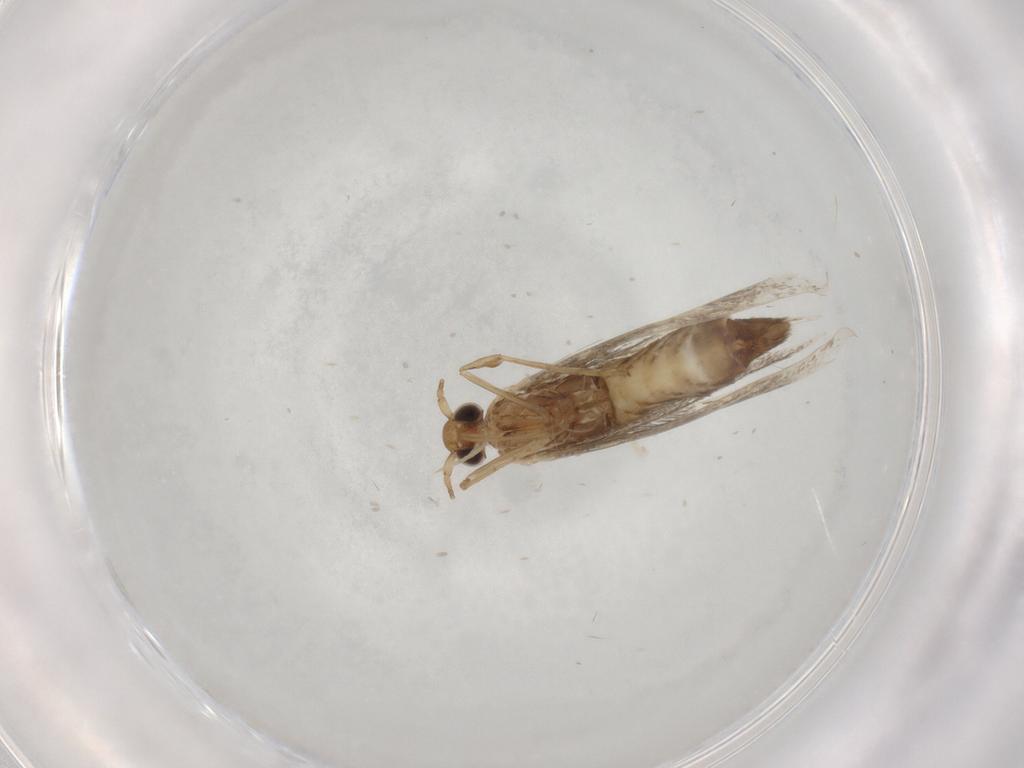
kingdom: Animalia
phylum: Arthropoda
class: Insecta
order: Lepidoptera
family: Gracillariidae
